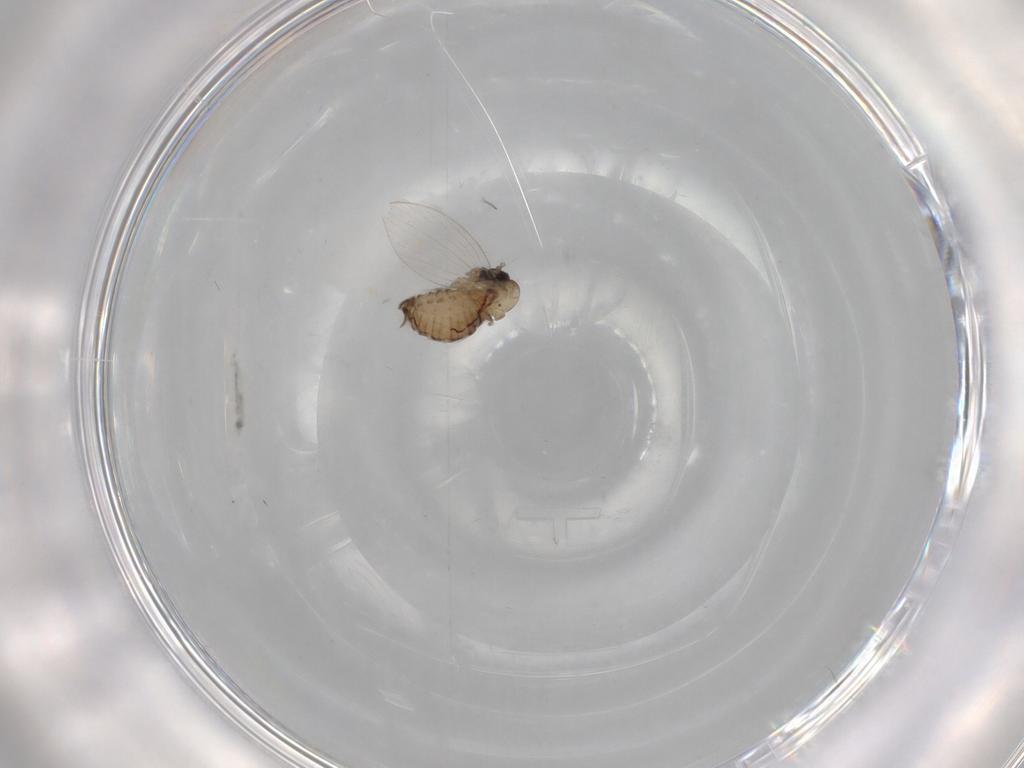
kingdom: Animalia
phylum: Arthropoda
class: Insecta
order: Diptera
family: Psychodidae
